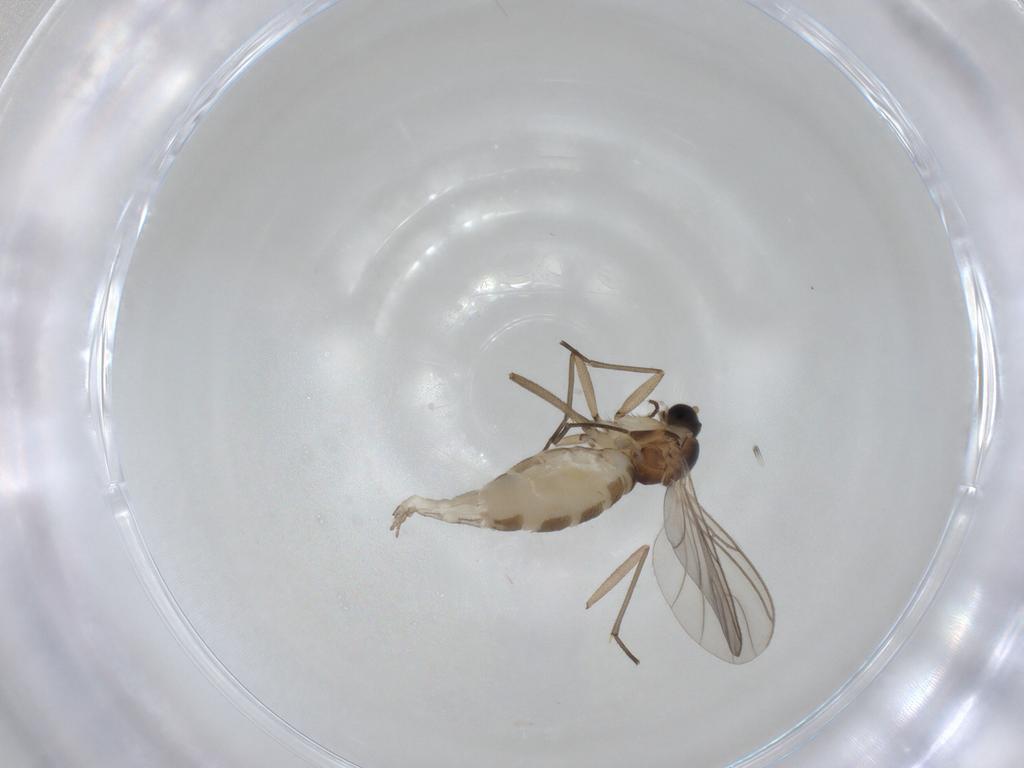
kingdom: Animalia
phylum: Arthropoda
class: Insecta
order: Diptera
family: Sciaridae
